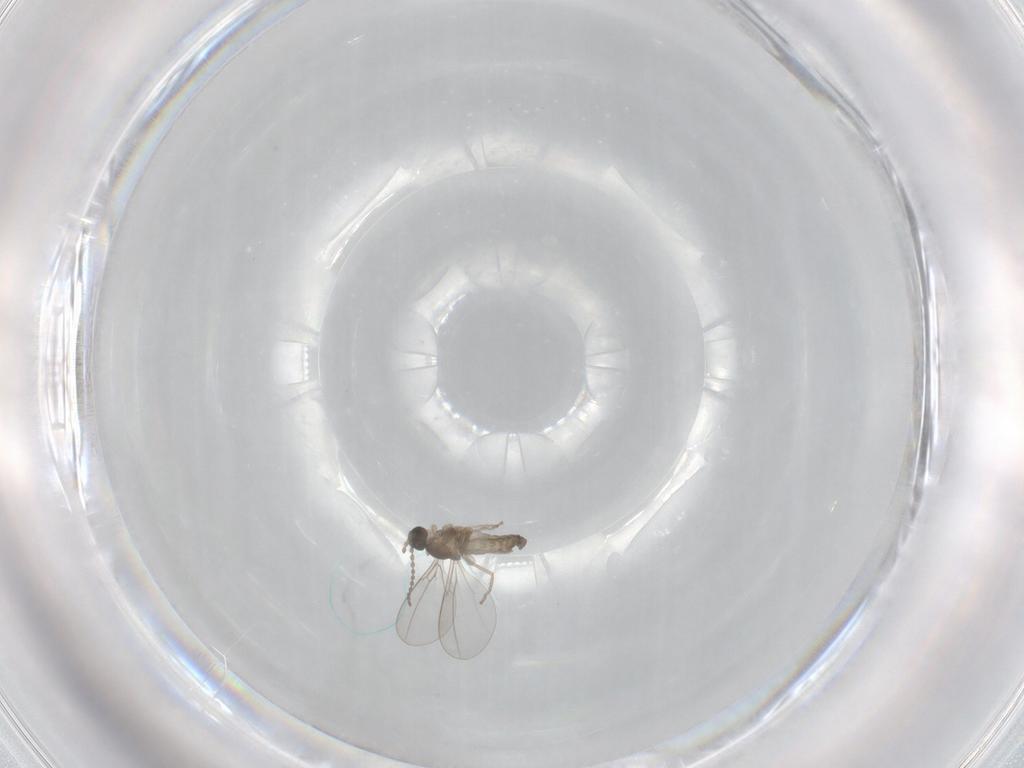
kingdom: Animalia
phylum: Arthropoda
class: Insecta
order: Diptera
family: Cecidomyiidae
